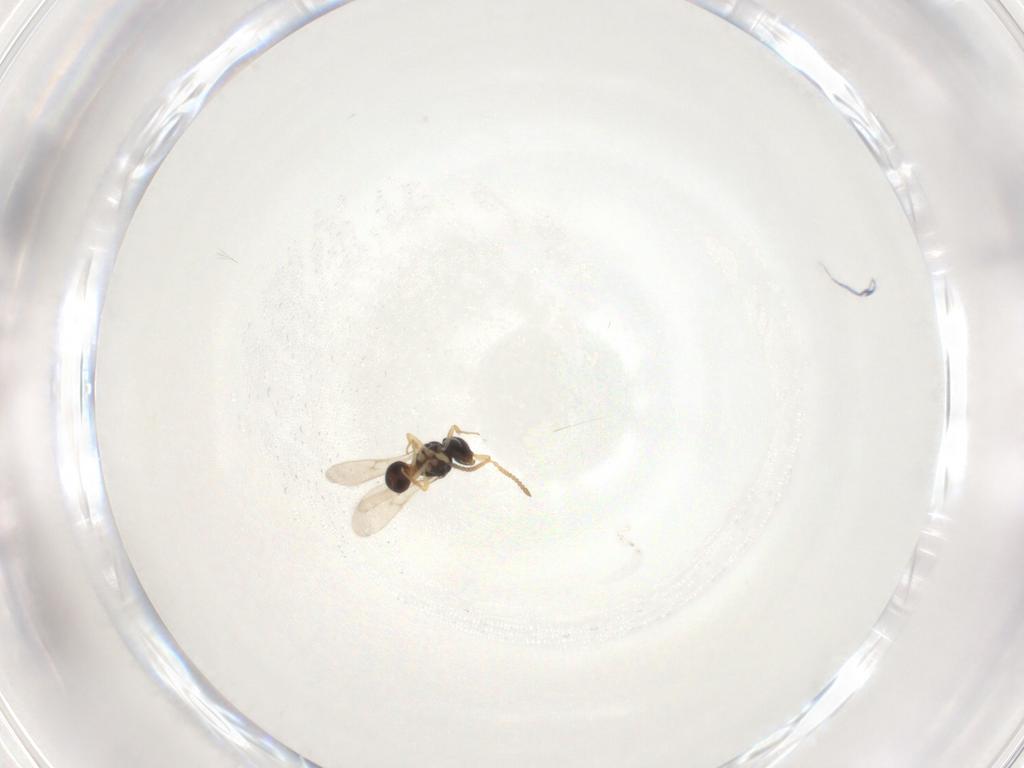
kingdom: Animalia
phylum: Arthropoda
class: Insecta
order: Hymenoptera
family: Scelionidae
